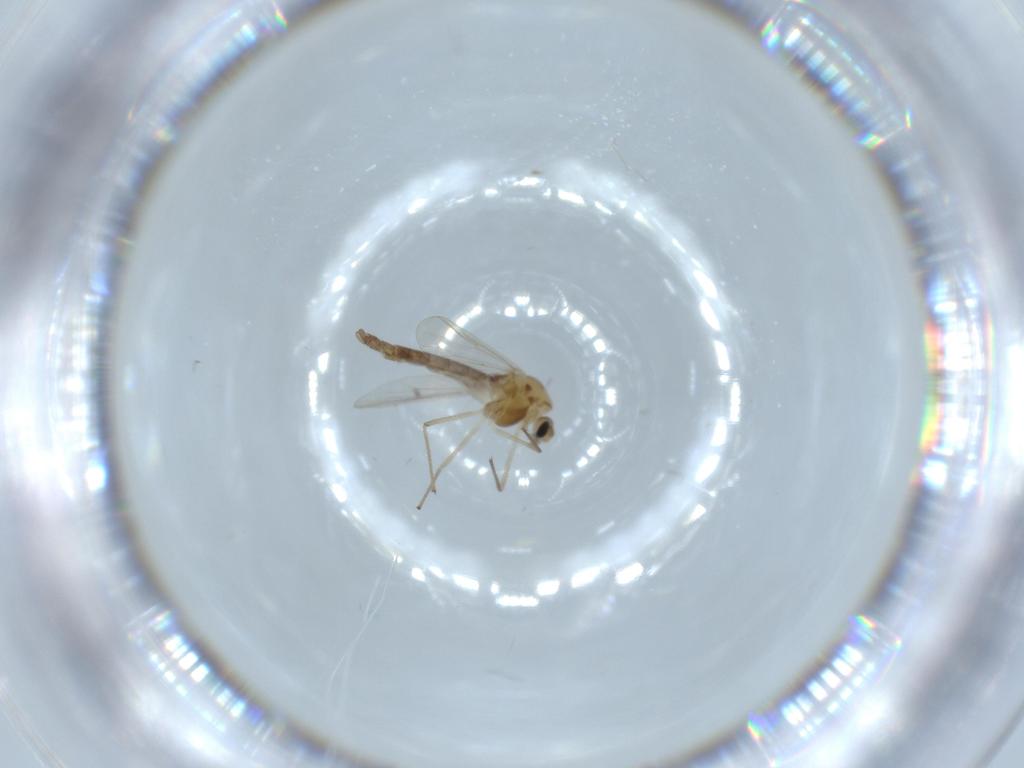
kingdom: Animalia
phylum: Arthropoda
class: Insecta
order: Diptera
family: Chironomidae
